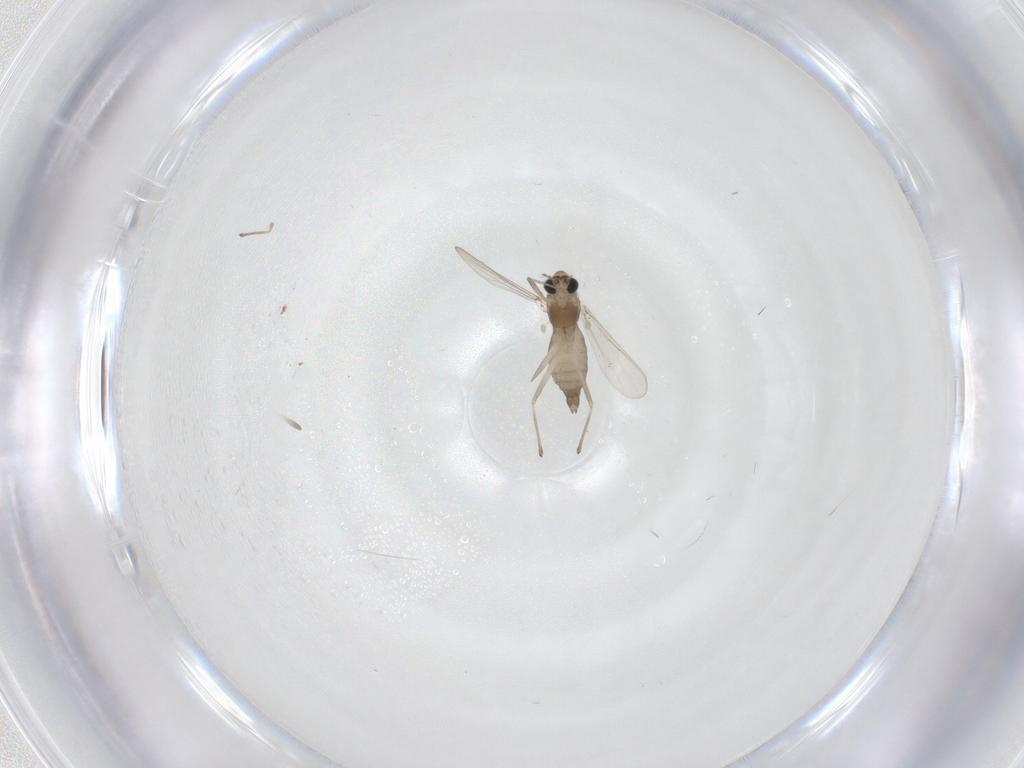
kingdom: Animalia
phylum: Arthropoda
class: Insecta
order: Diptera
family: Chironomidae
